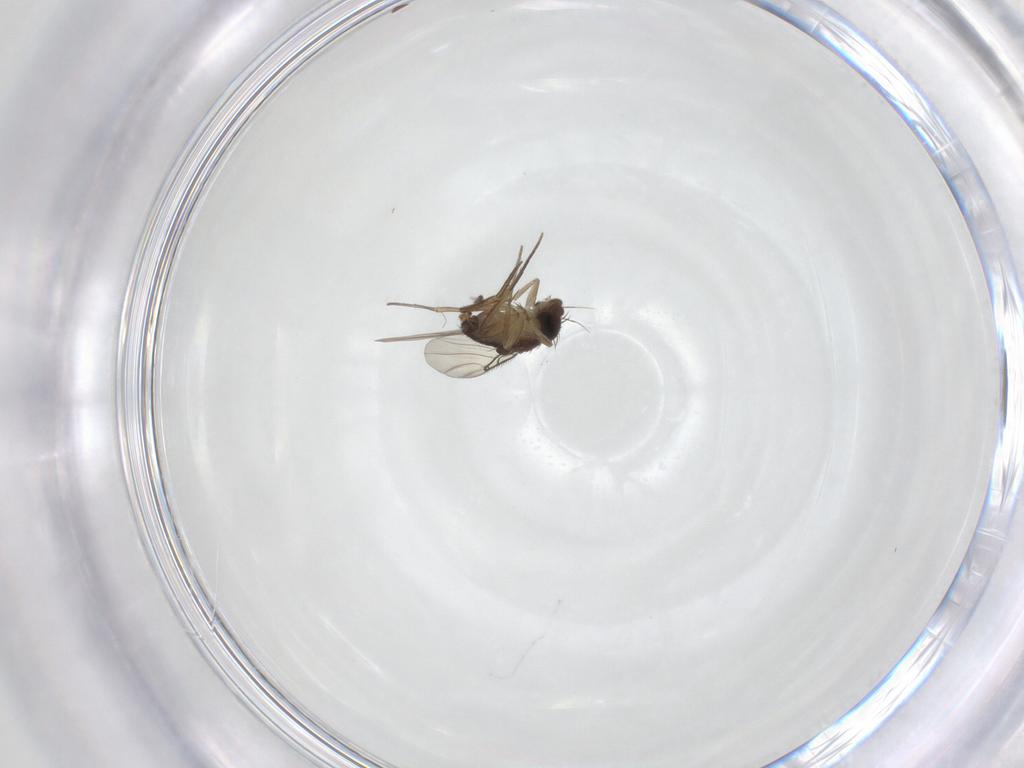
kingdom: Animalia
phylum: Arthropoda
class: Insecta
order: Diptera
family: Phoridae
